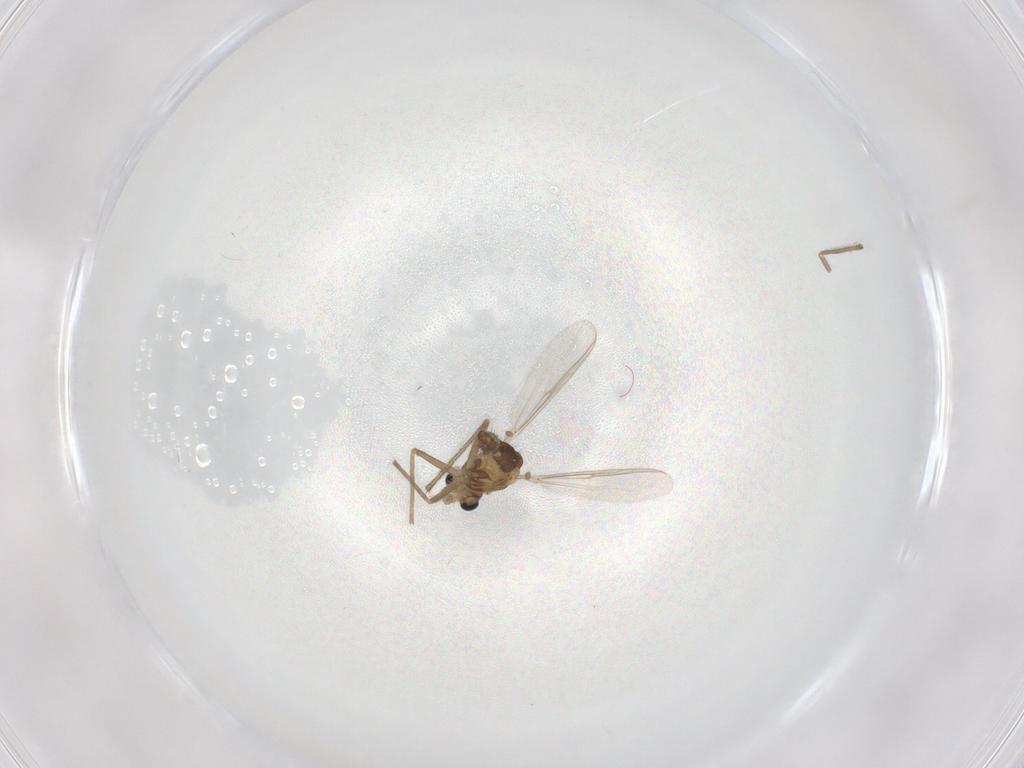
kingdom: Animalia
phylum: Arthropoda
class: Insecta
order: Diptera
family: Chironomidae
